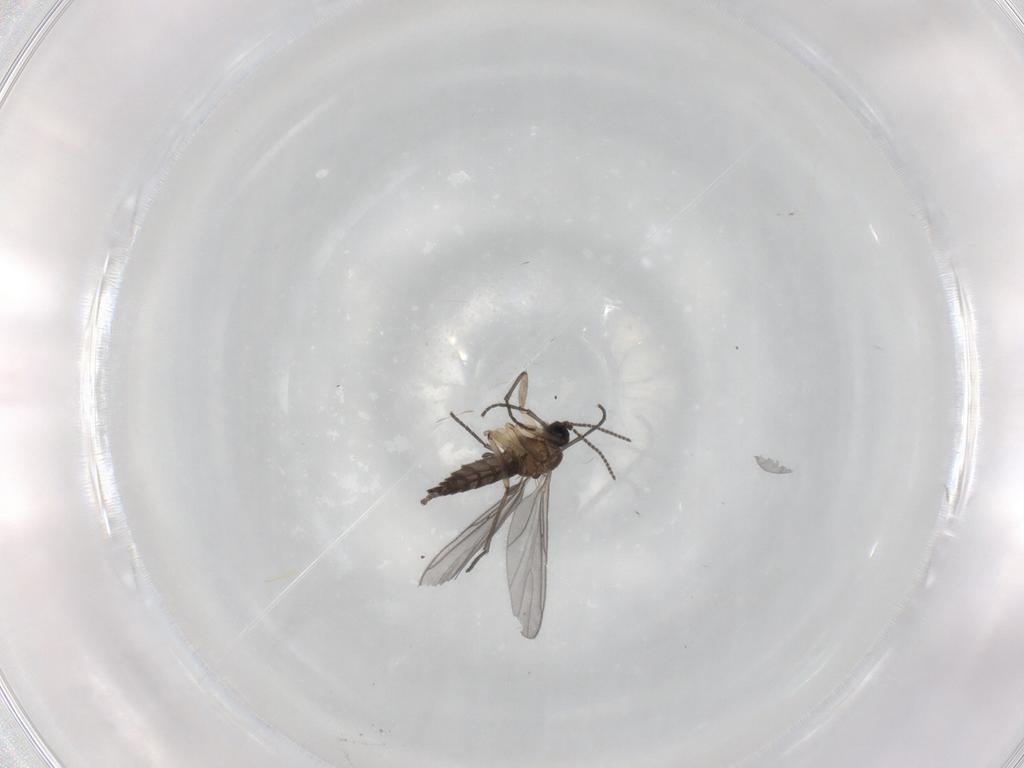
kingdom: Animalia
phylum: Arthropoda
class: Insecta
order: Diptera
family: Sciaridae
